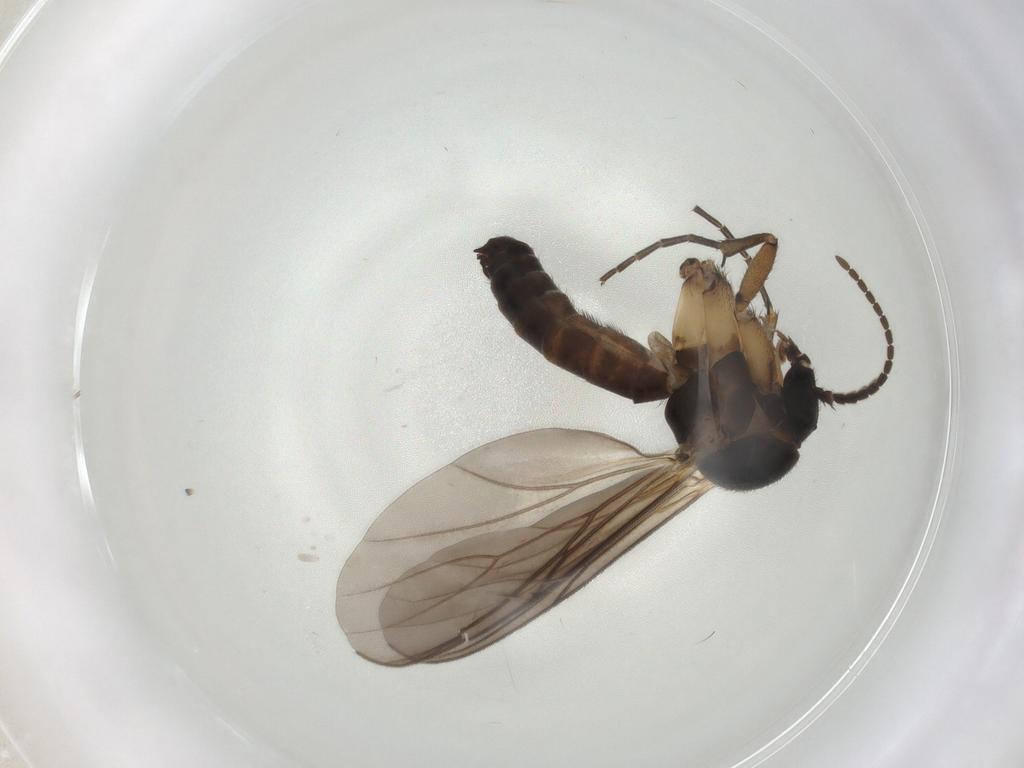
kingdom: Animalia
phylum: Arthropoda
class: Insecta
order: Diptera
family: Mycetophilidae
